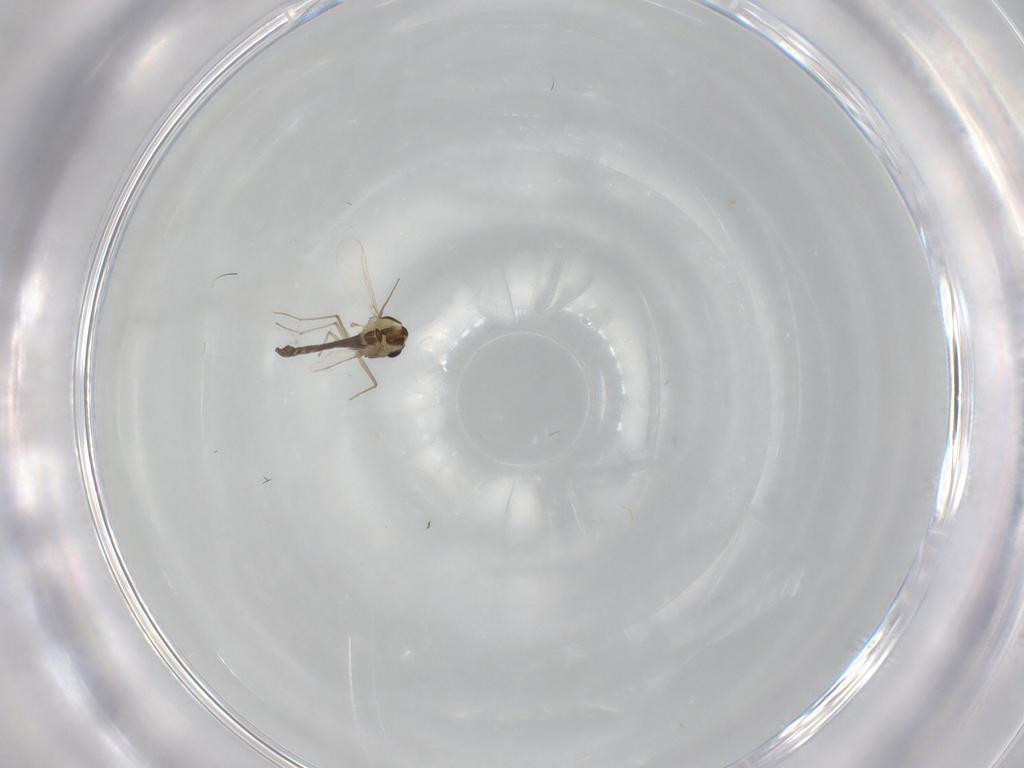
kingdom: Animalia
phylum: Arthropoda
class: Insecta
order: Diptera
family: Chironomidae
